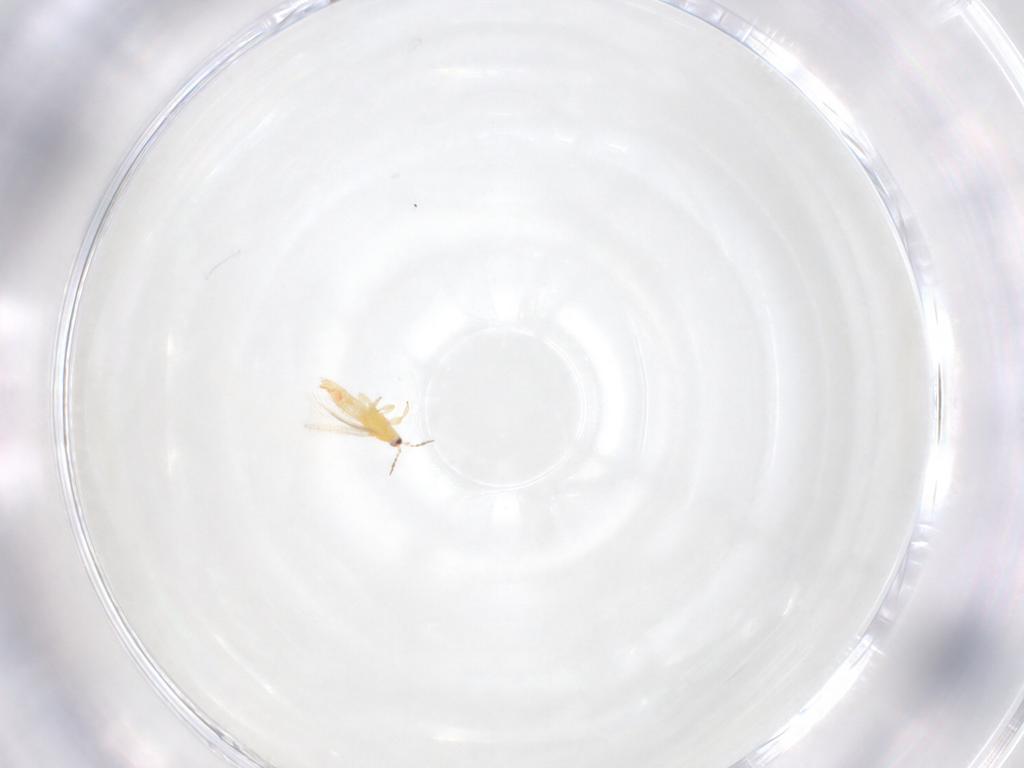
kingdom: Animalia
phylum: Arthropoda
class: Insecta
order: Thysanoptera
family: Heterothripidae
